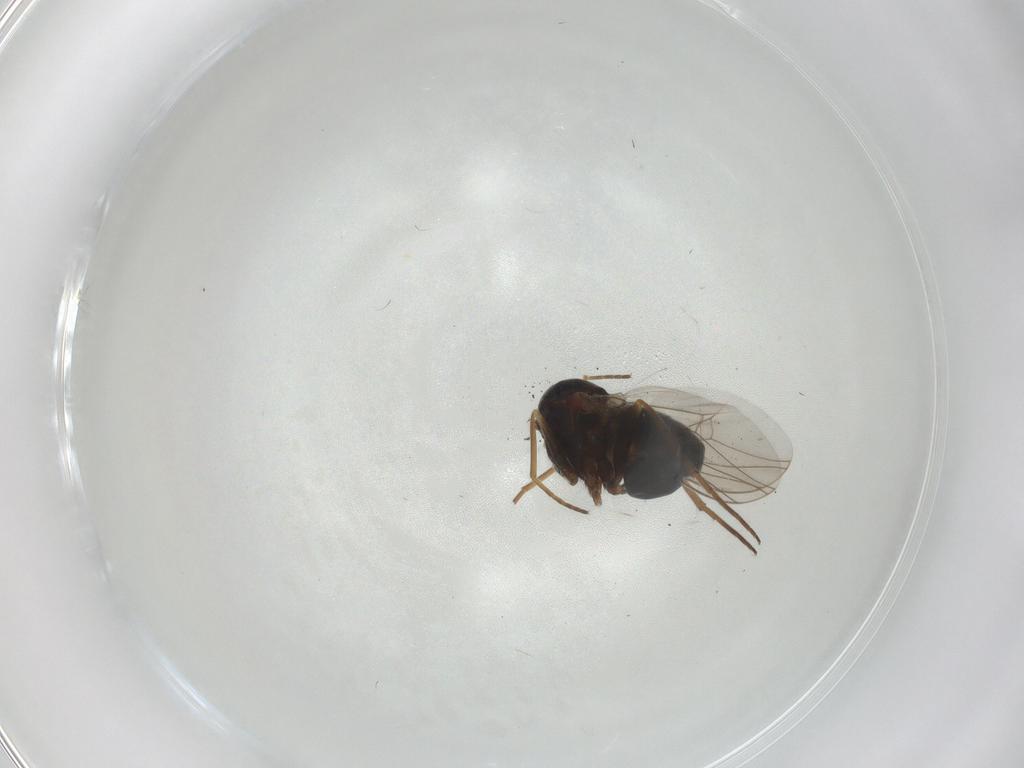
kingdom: Animalia
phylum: Arthropoda
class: Insecta
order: Diptera
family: Dolichopodidae
